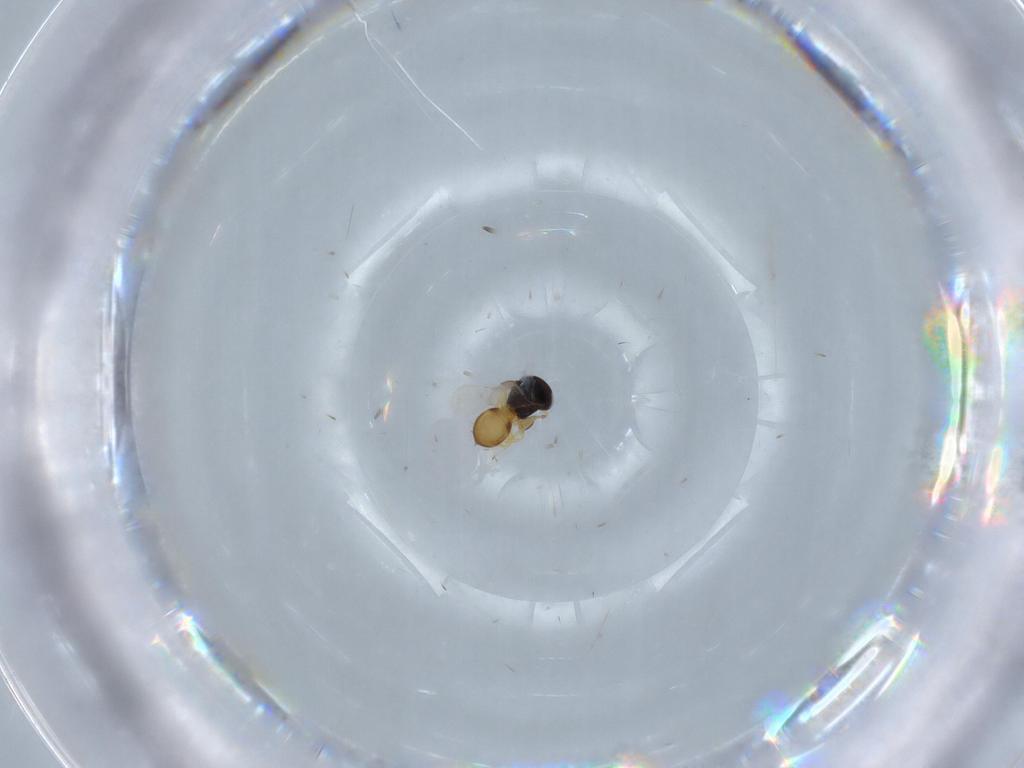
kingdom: Animalia
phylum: Arthropoda
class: Insecta
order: Hymenoptera
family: Scelionidae
